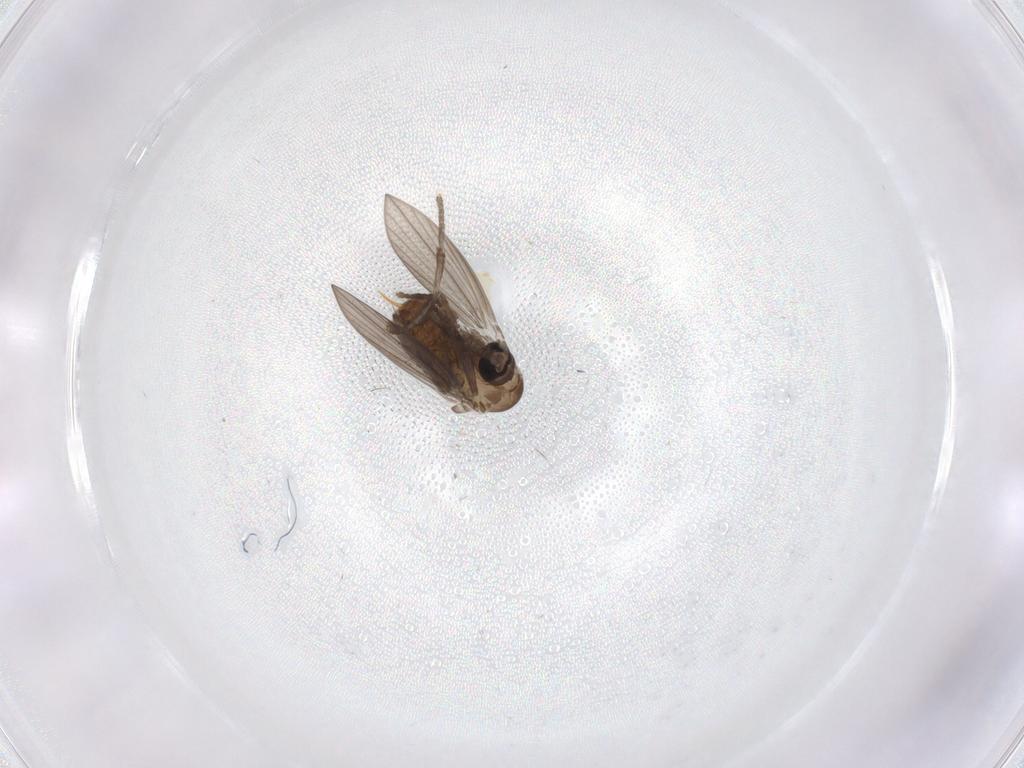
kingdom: Animalia
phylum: Arthropoda
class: Insecta
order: Diptera
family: Psychodidae
